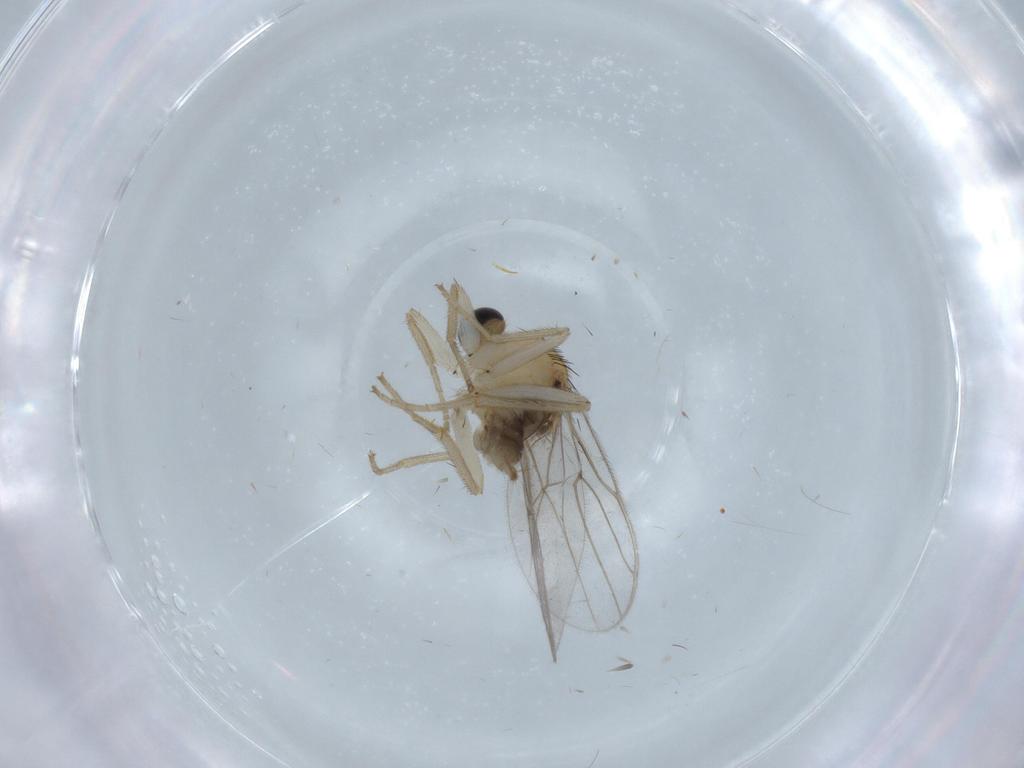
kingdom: Animalia
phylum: Arthropoda
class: Insecta
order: Diptera
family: Hybotidae
